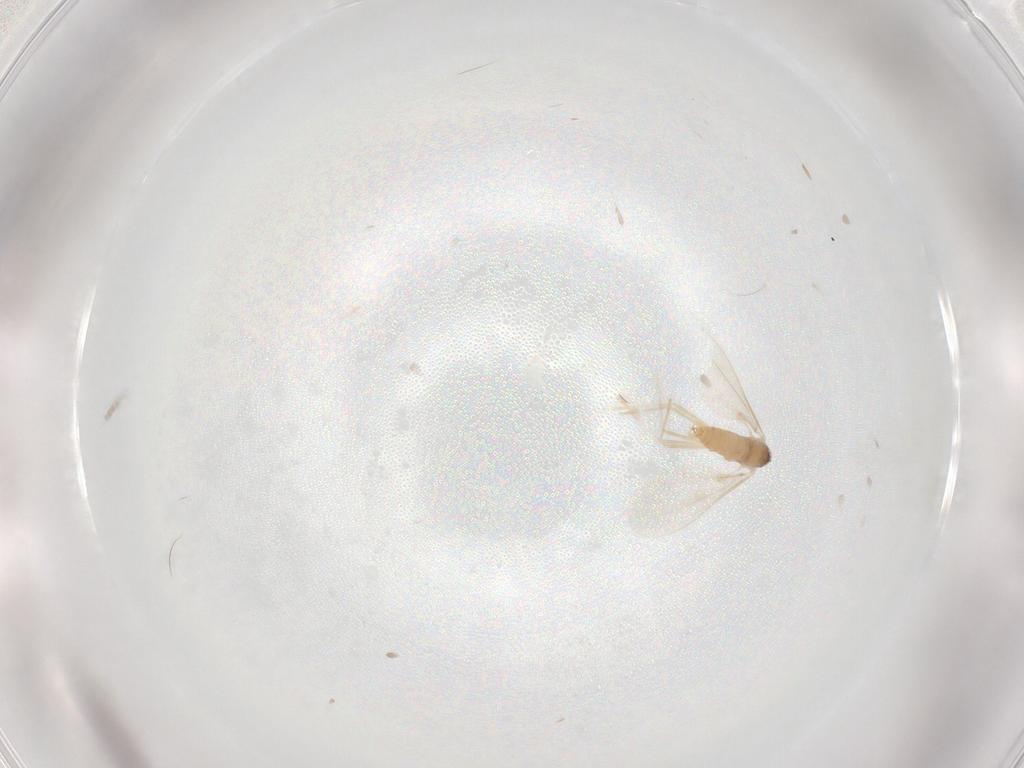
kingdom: Animalia
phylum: Arthropoda
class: Insecta
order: Diptera
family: Cecidomyiidae
